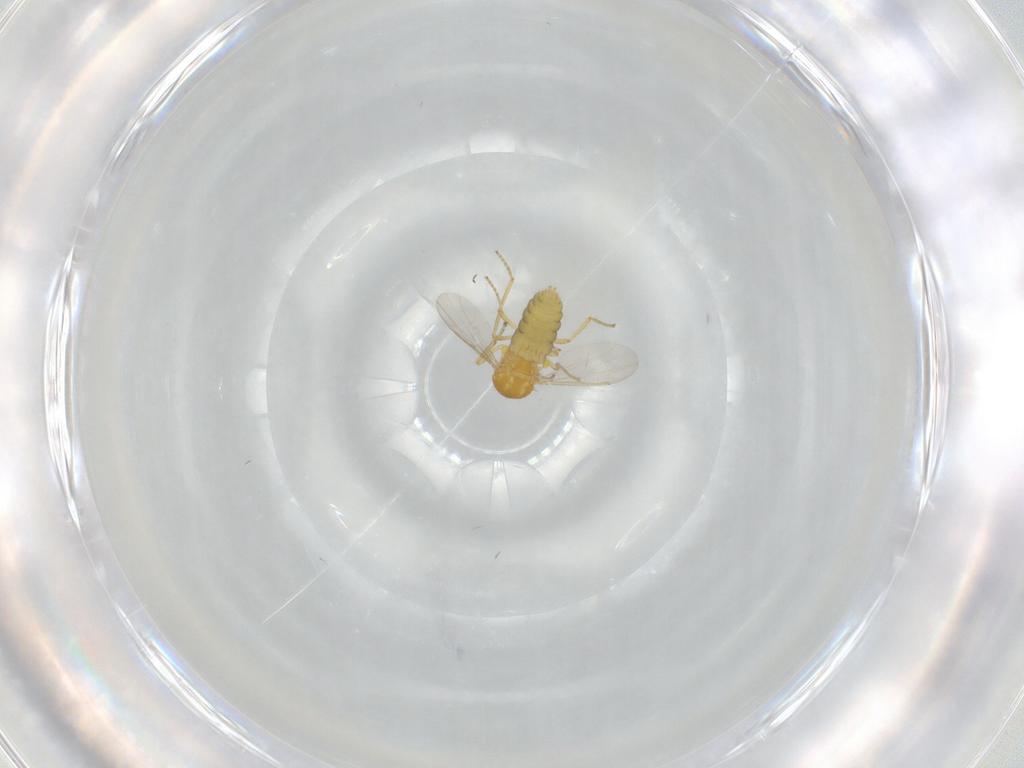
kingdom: Animalia
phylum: Arthropoda
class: Insecta
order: Diptera
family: Ceratopogonidae
